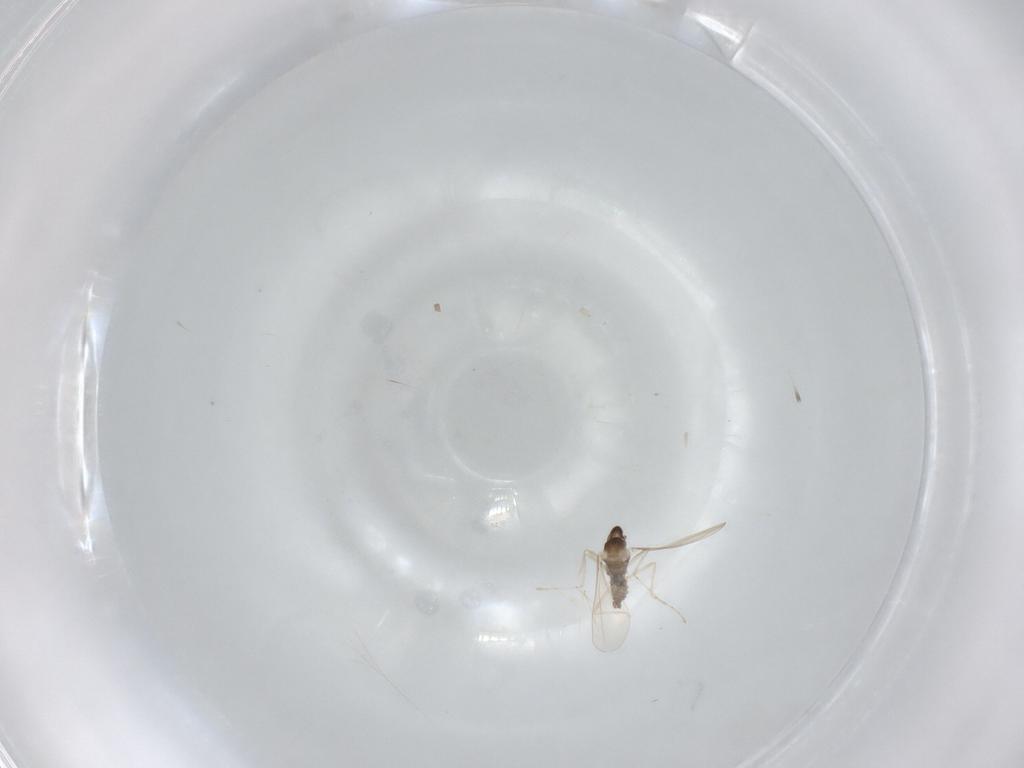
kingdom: Animalia
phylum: Arthropoda
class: Insecta
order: Diptera
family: Cecidomyiidae
